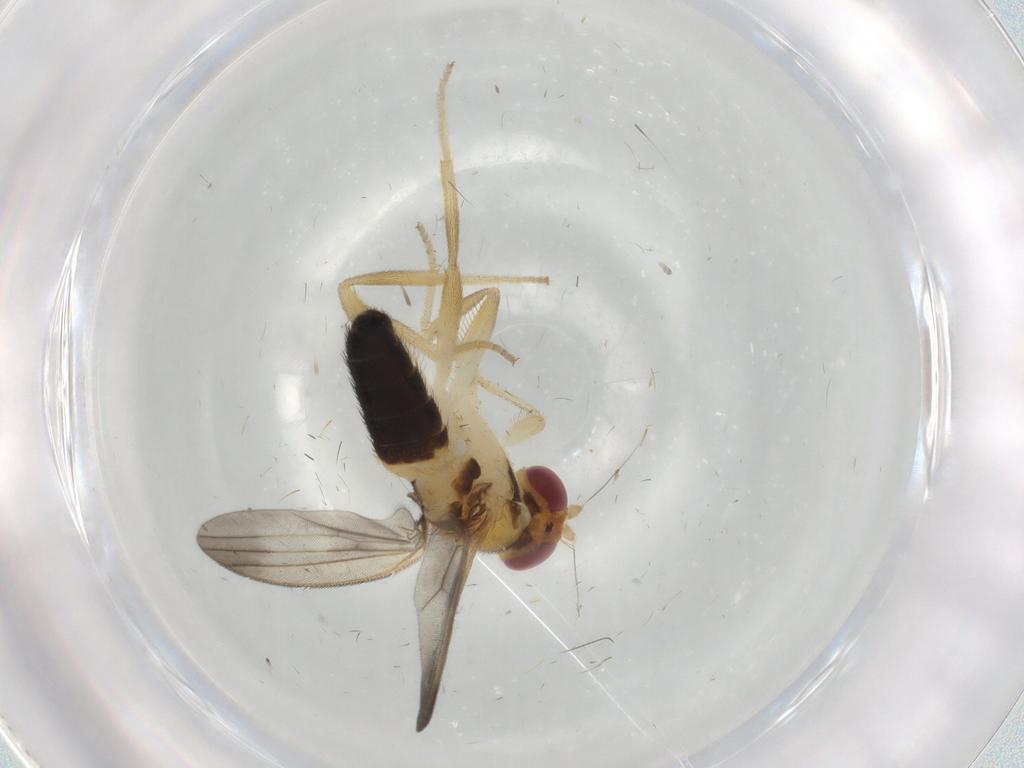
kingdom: Animalia
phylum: Arthropoda
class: Insecta
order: Diptera
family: Clusiidae
